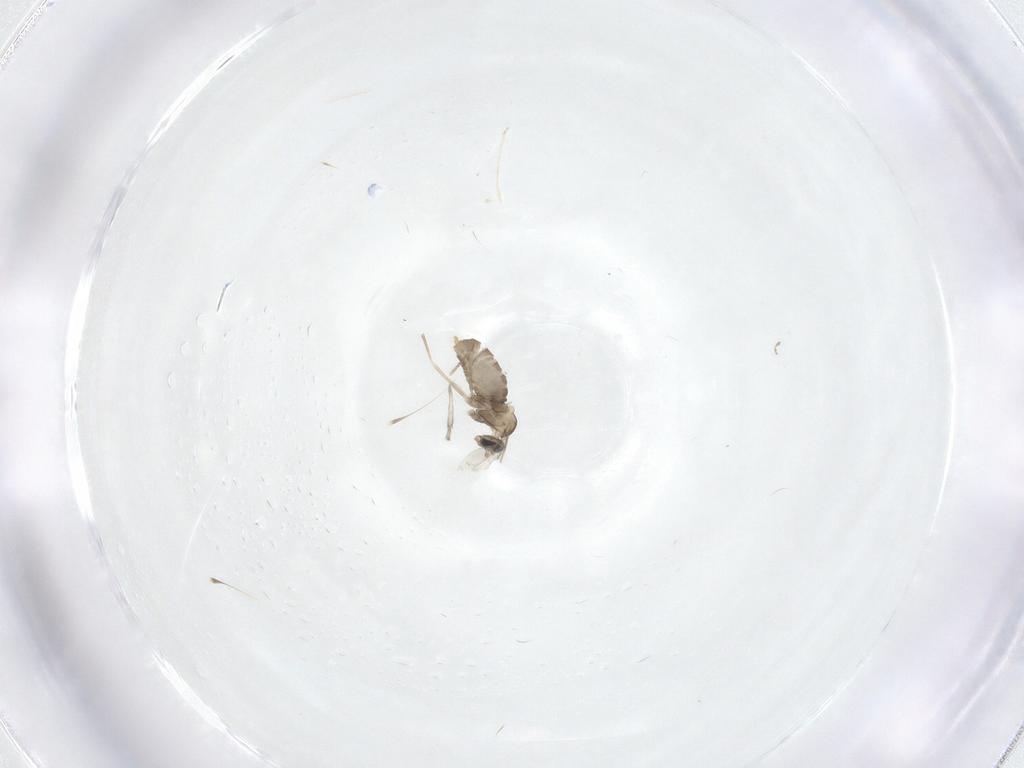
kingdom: Animalia
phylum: Arthropoda
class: Insecta
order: Diptera
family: Cecidomyiidae
